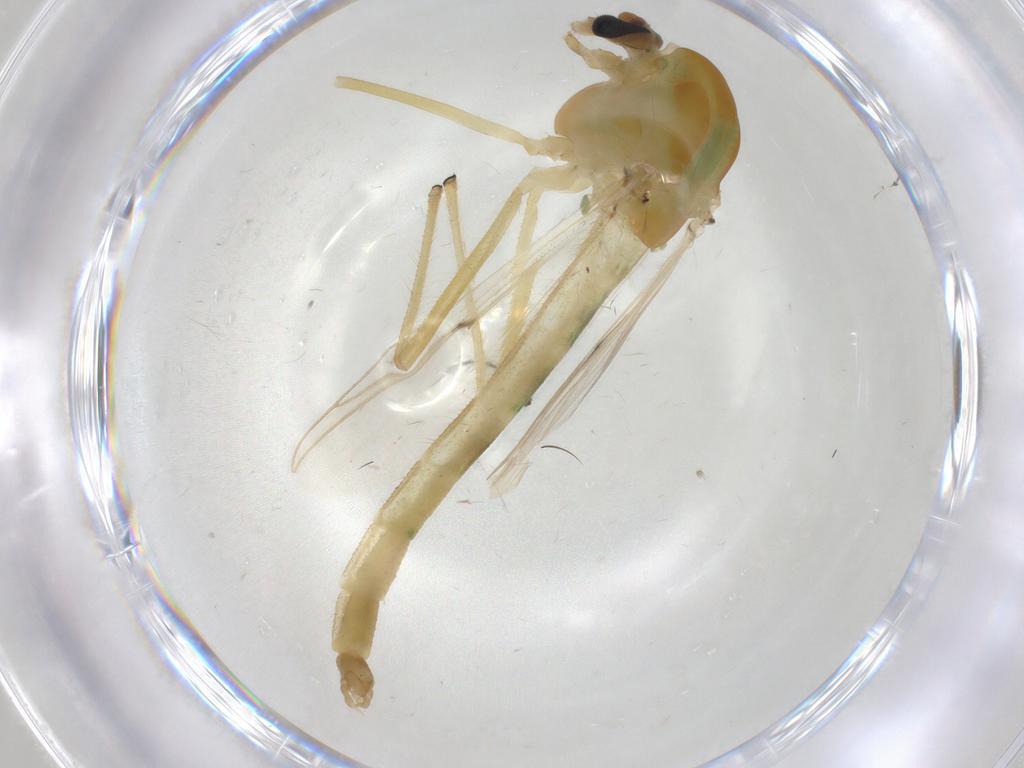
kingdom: Animalia
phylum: Arthropoda
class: Insecta
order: Diptera
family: Chironomidae
